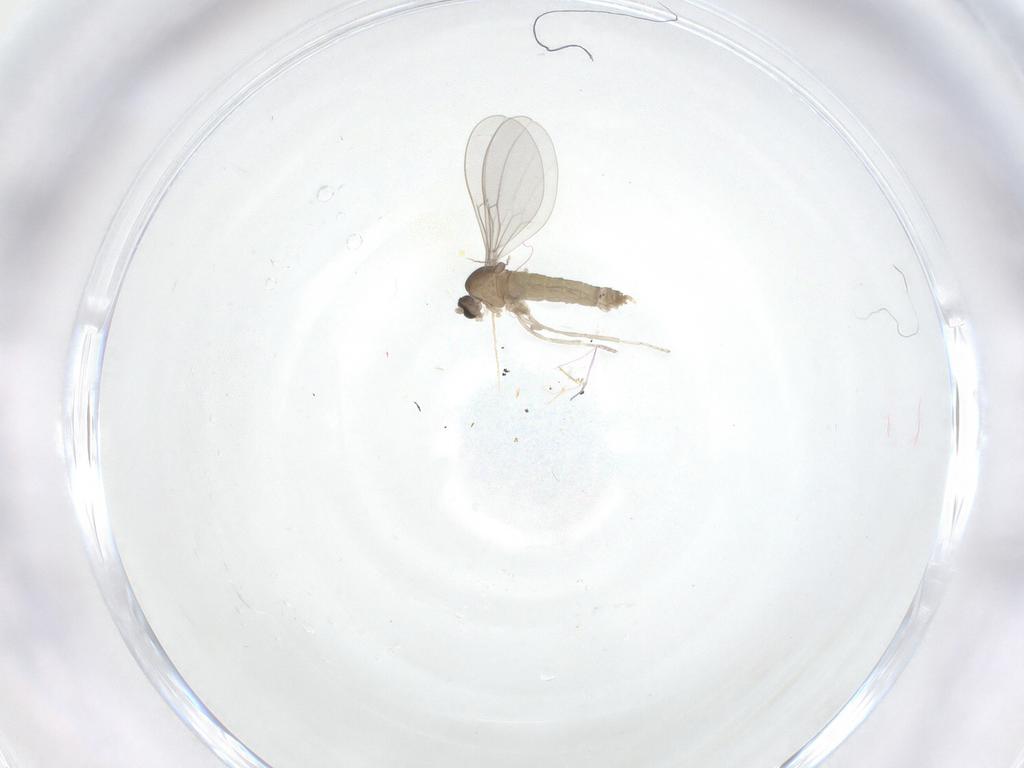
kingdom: Animalia
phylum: Arthropoda
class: Insecta
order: Diptera
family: Cecidomyiidae
